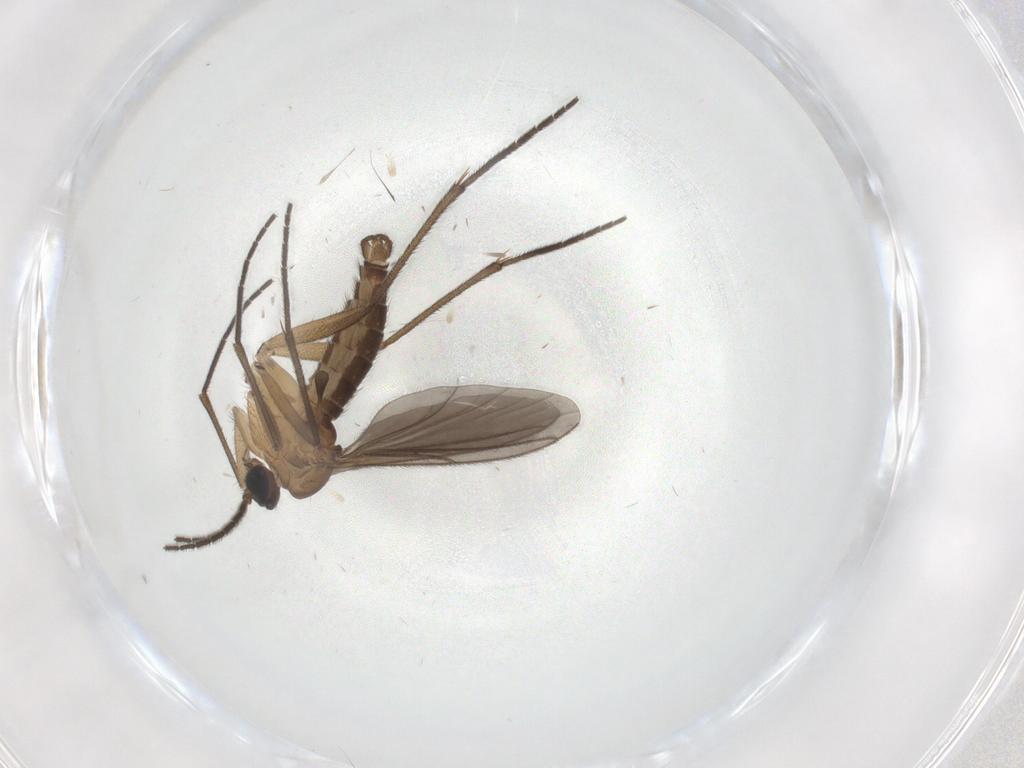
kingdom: Animalia
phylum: Arthropoda
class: Insecta
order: Diptera
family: Sciaridae
